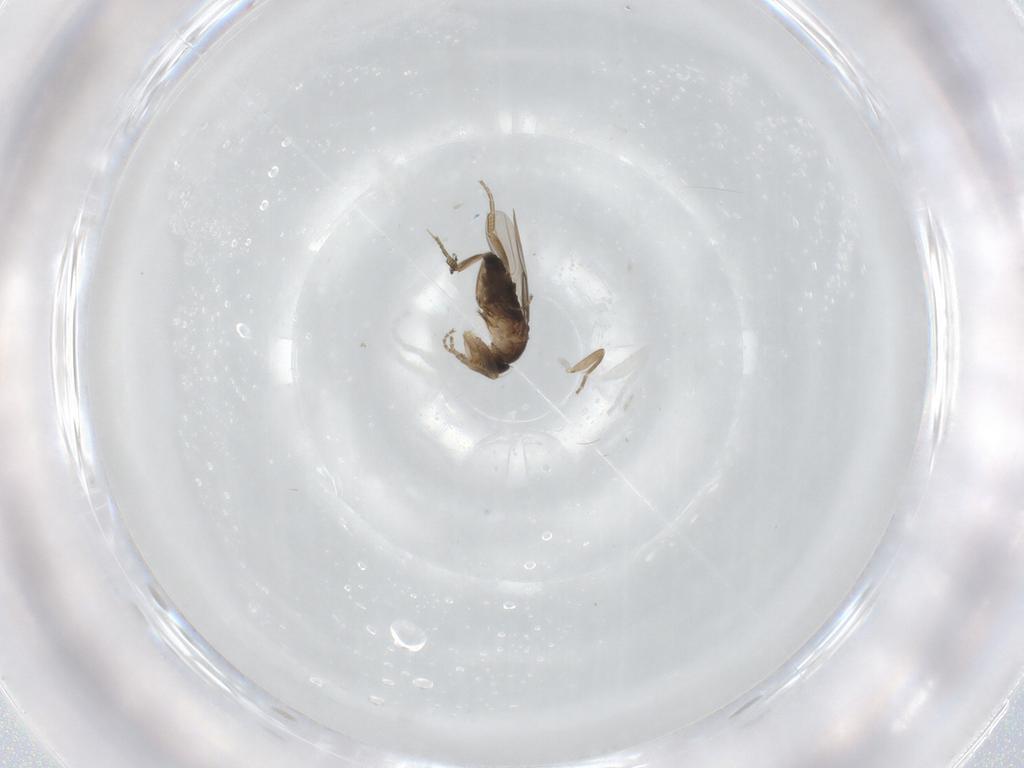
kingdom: Animalia
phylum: Arthropoda
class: Insecta
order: Diptera
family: Phoridae
